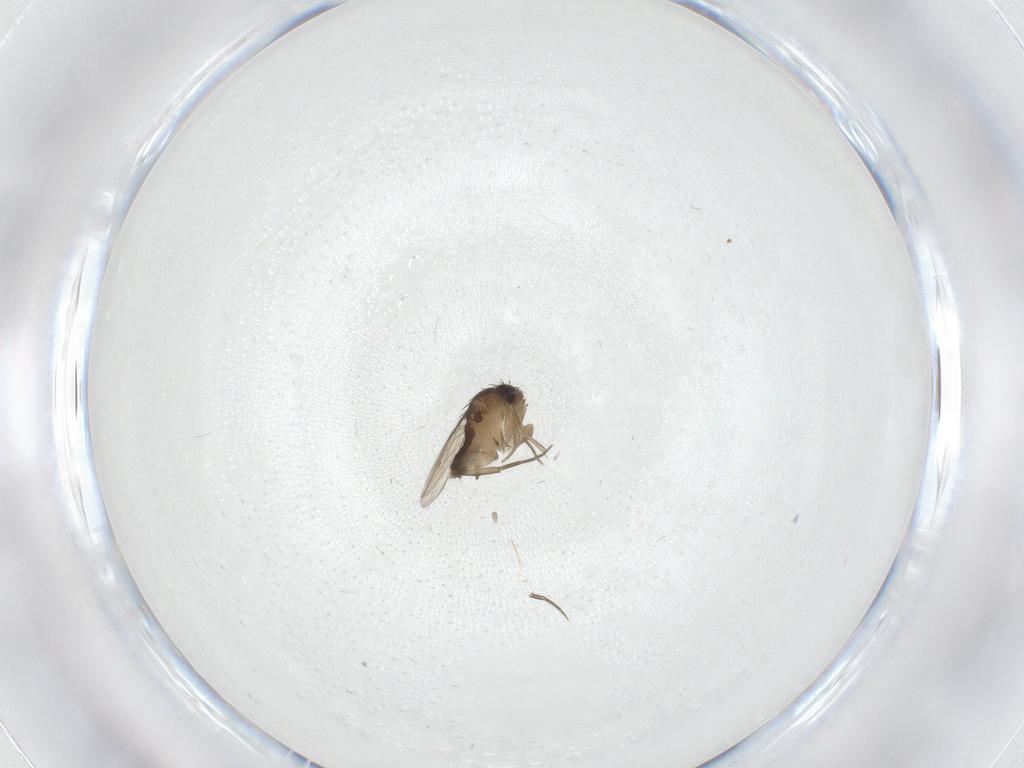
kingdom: Animalia
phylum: Arthropoda
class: Insecta
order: Diptera
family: Phoridae
